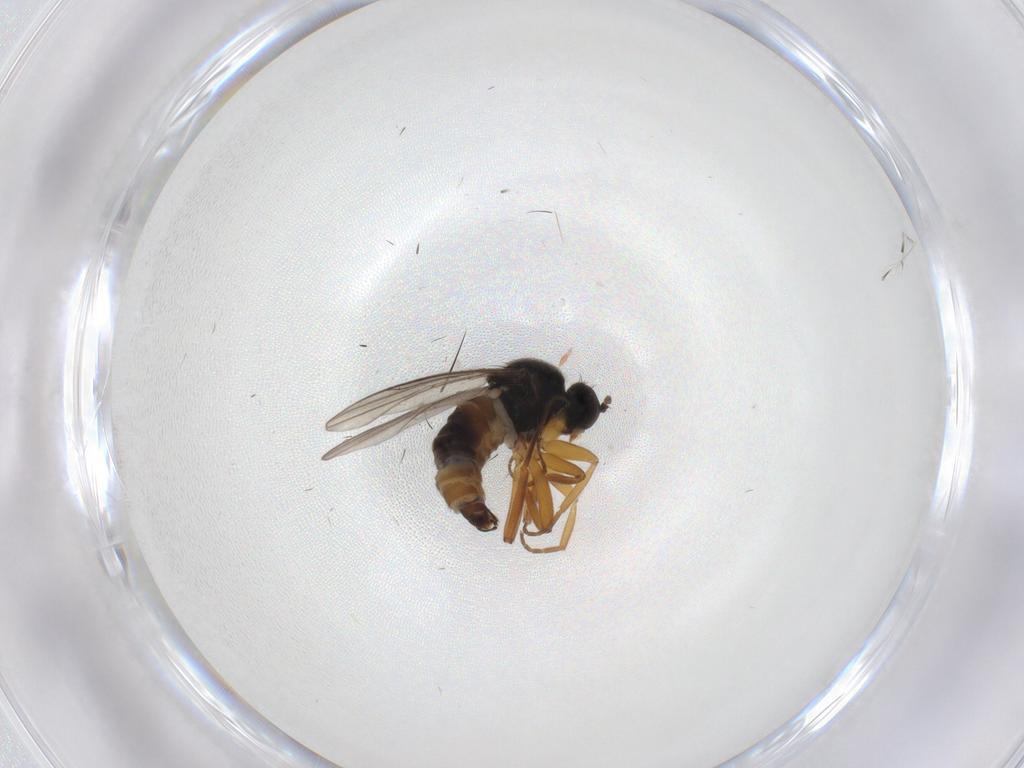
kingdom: Animalia
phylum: Arthropoda
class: Insecta
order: Diptera
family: Hybotidae
